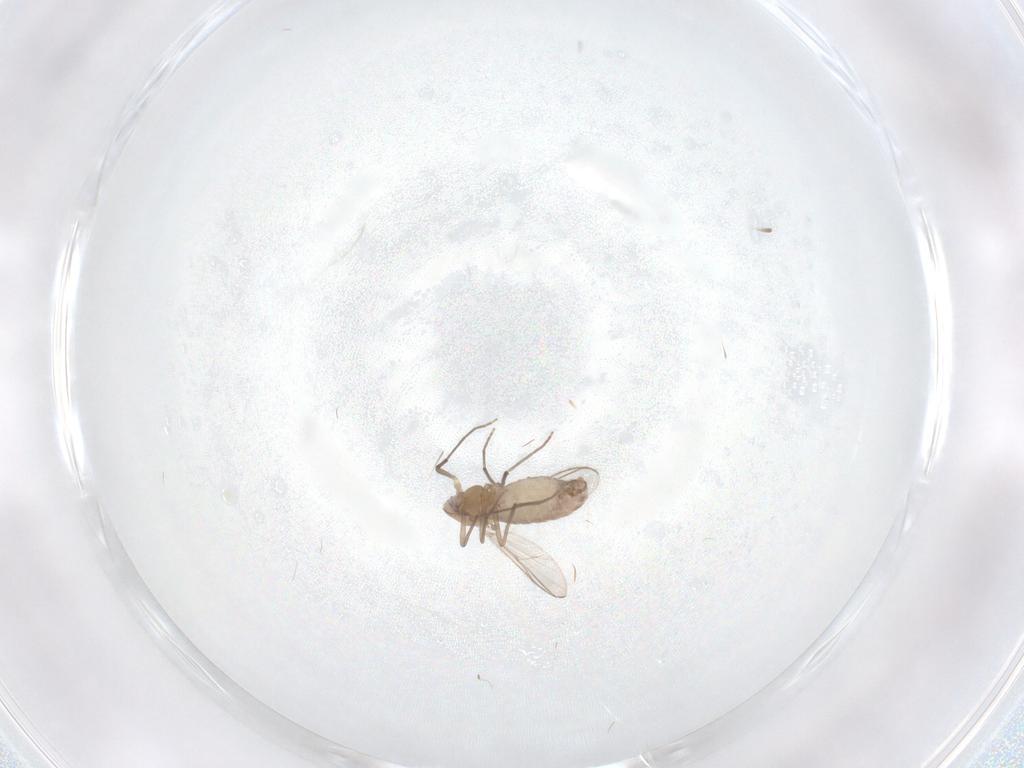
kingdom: Animalia
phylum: Arthropoda
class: Insecta
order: Diptera
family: Chironomidae
